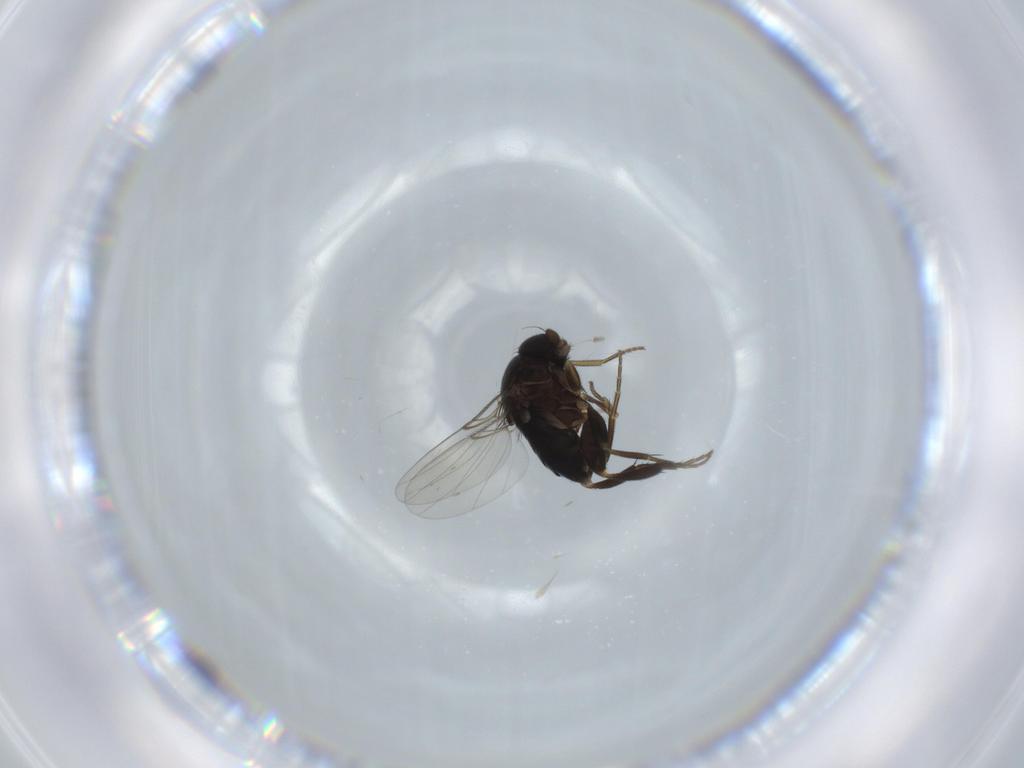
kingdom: Animalia
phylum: Arthropoda
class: Insecta
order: Diptera
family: Phoridae
